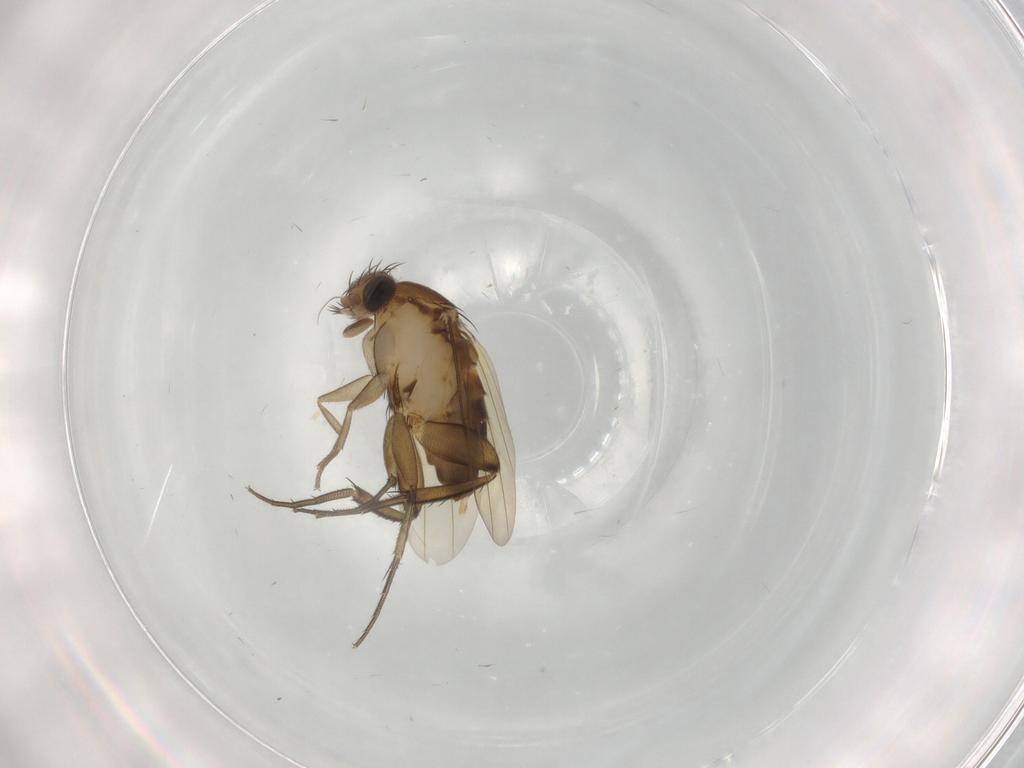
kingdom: Animalia
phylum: Arthropoda
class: Insecta
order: Diptera
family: Phoridae
